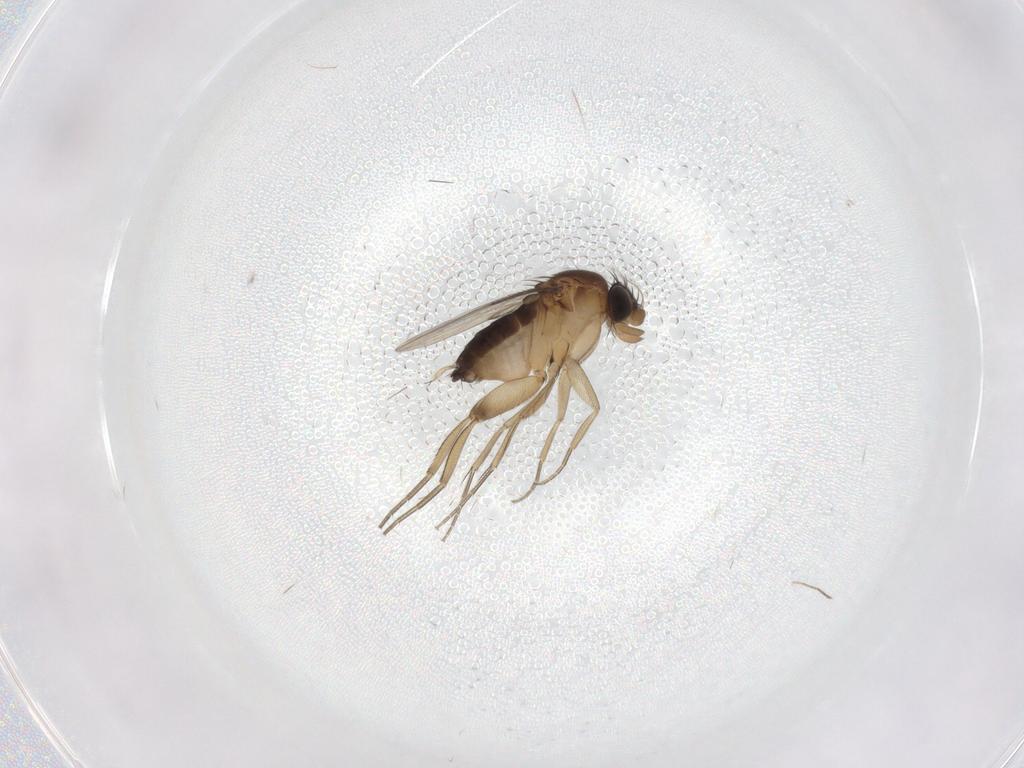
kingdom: Animalia
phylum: Arthropoda
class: Insecta
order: Diptera
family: Chironomidae
